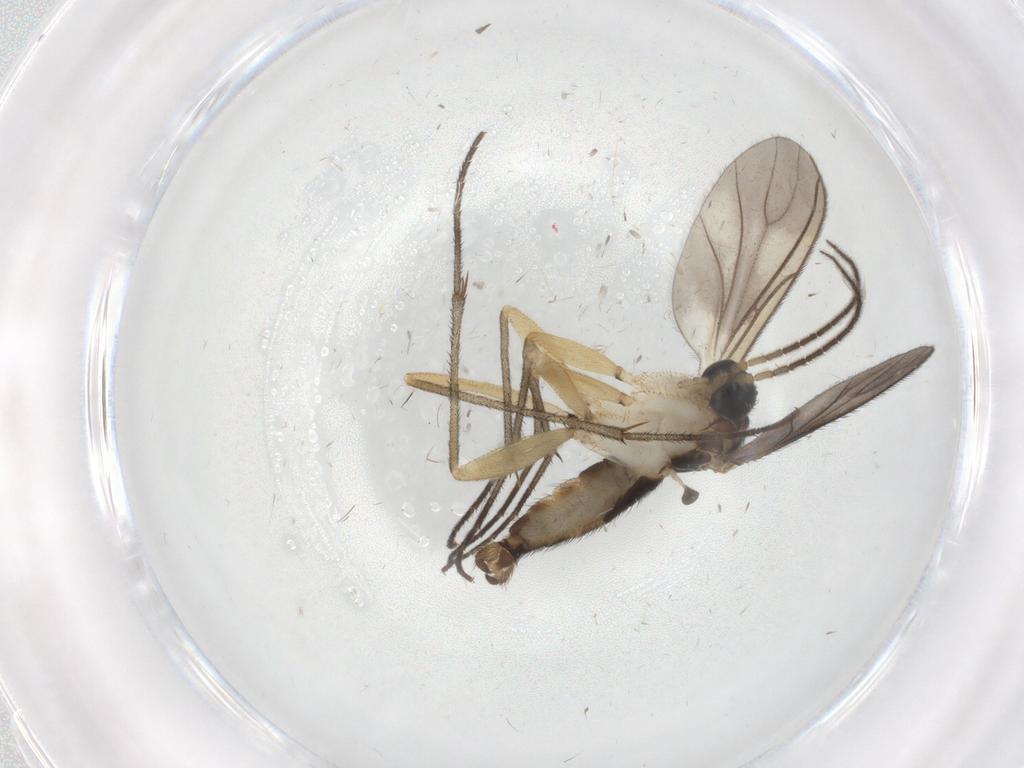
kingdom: Animalia
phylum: Arthropoda
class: Insecta
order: Diptera
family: Sciaridae
